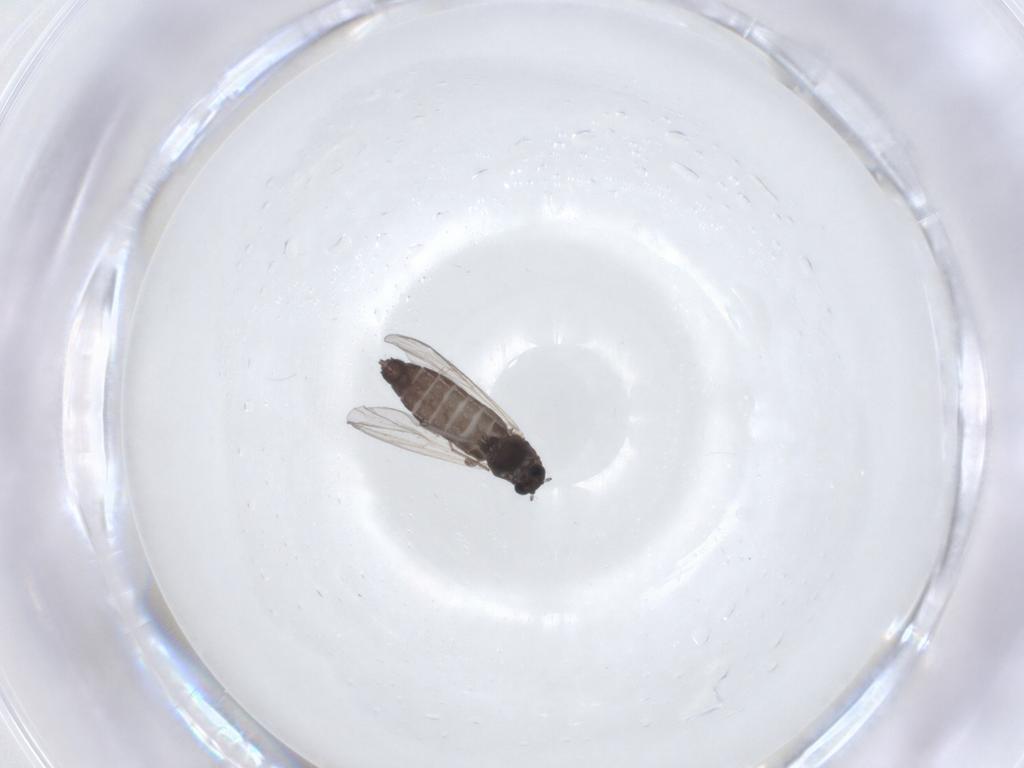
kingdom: Animalia
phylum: Arthropoda
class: Insecta
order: Diptera
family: Chironomidae
